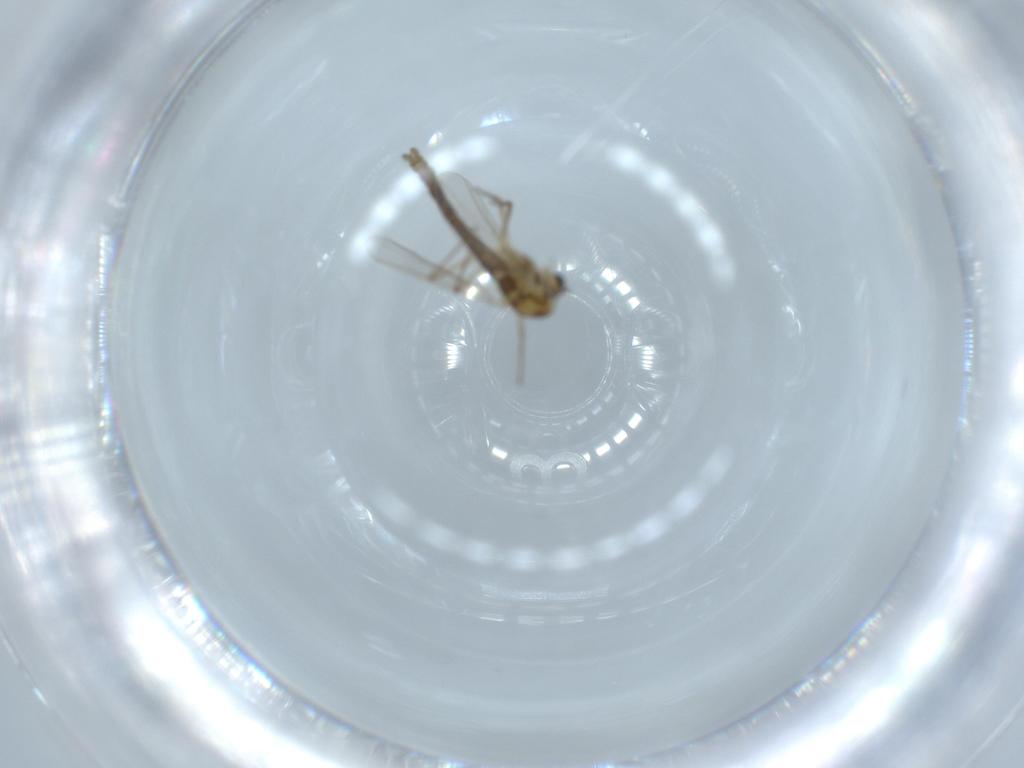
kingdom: Animalia
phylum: Arthropoda
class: Insecta
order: Diptera
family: Chironomidae
